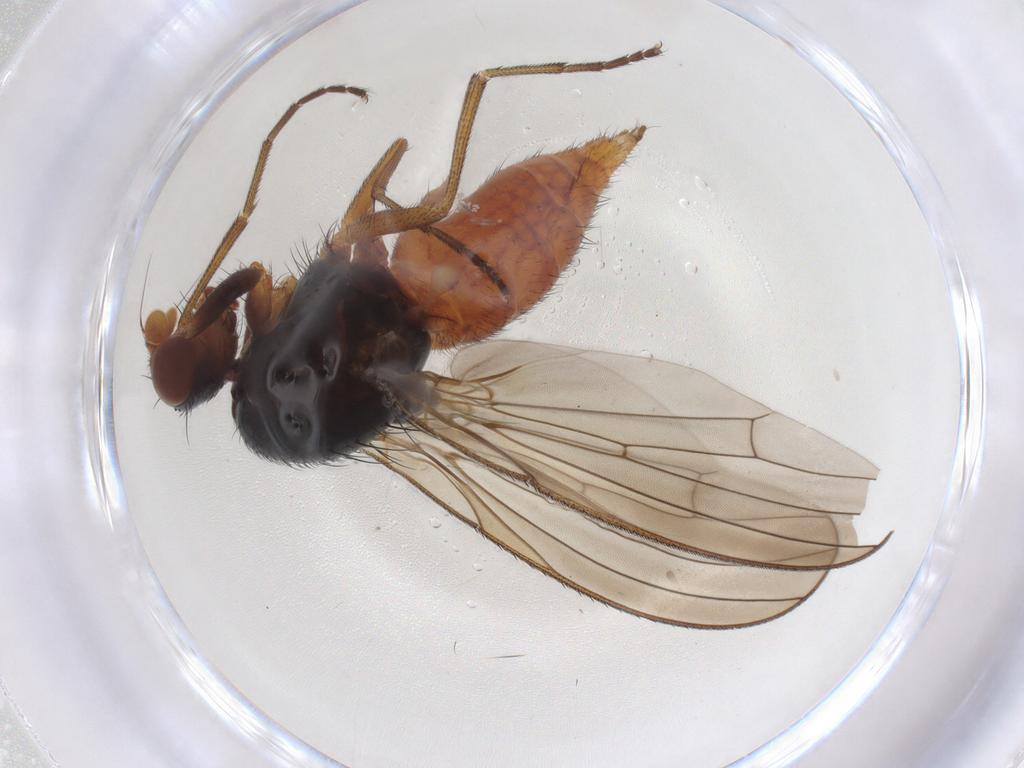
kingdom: Animalia
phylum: Arthropoda
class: Insecta
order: Diptera
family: Heleomyzidae
